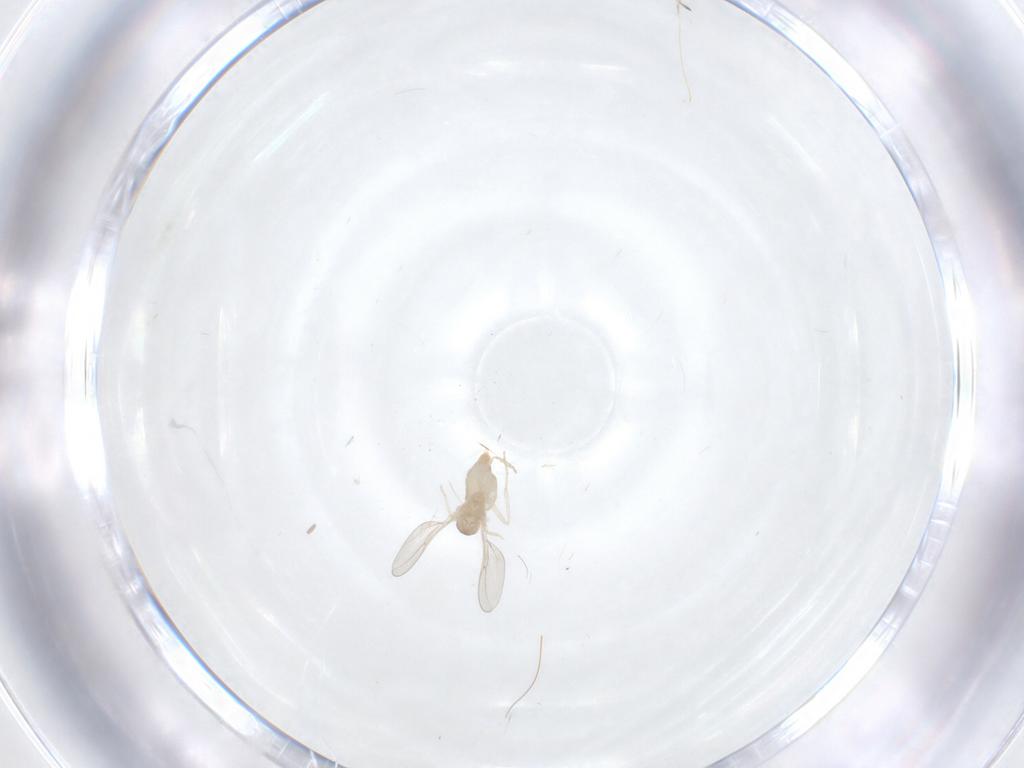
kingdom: Animalia
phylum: Arthropoda
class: Insecta
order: Diptera
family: Cecidomyiidae
